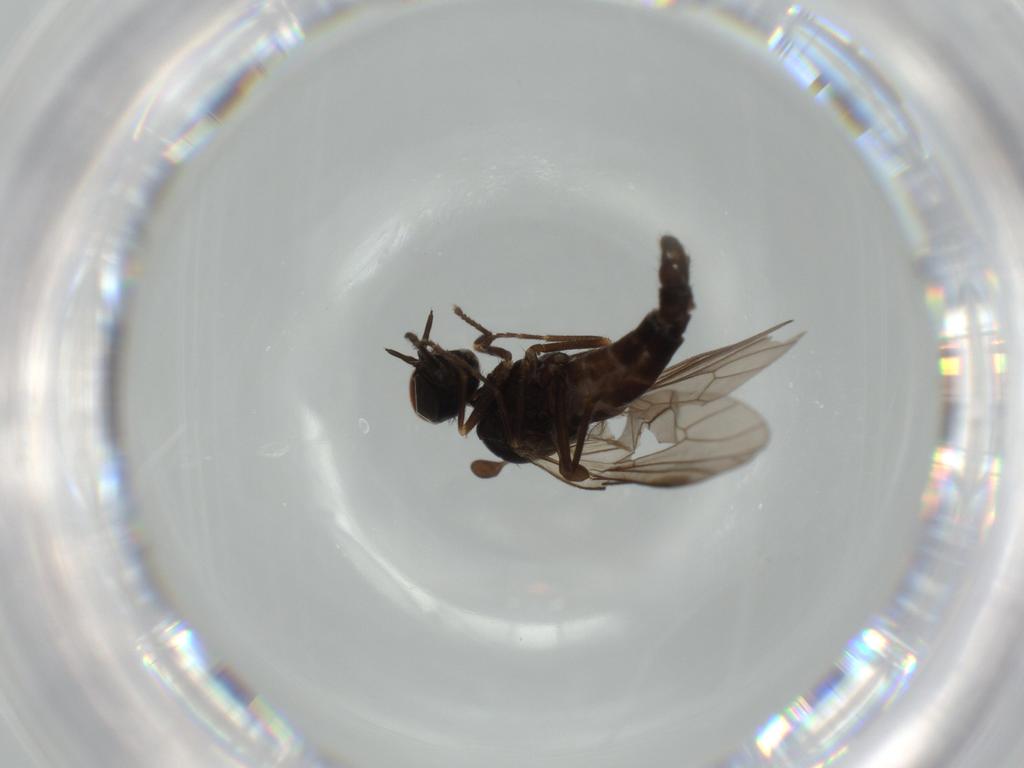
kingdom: Animalia
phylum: Arthropoda
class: Insecta
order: Diptera
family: Iteaphilidae
